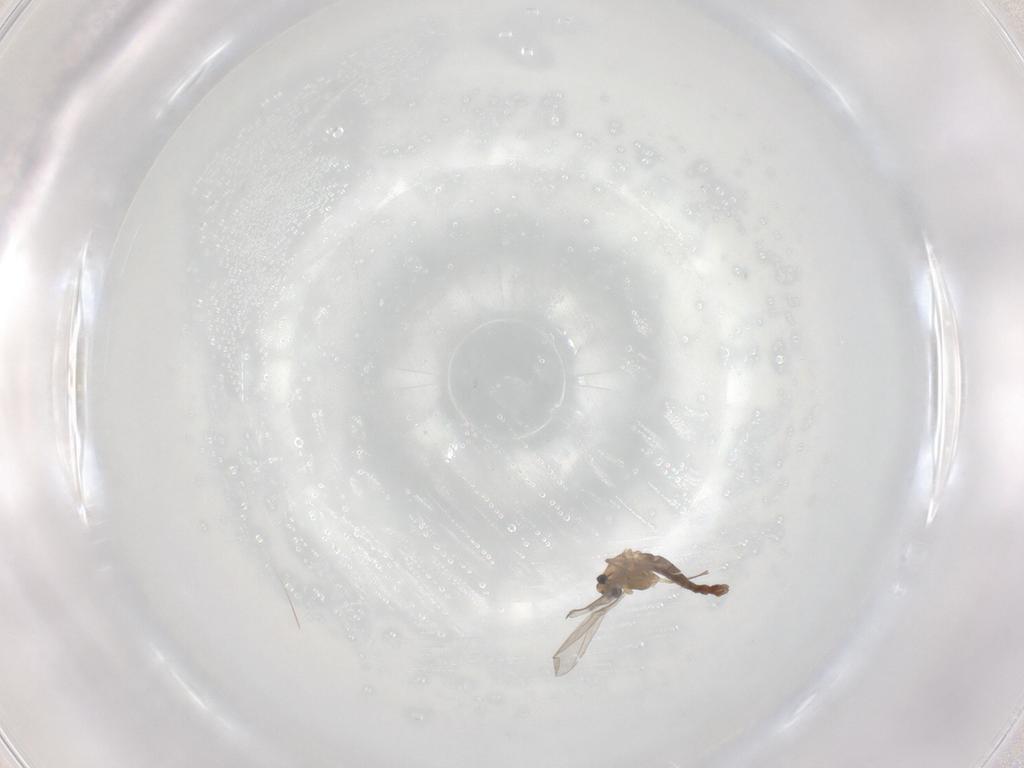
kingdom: Animalia
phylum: Arthropoda
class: Insecta
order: Diptera
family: Chironomidae
